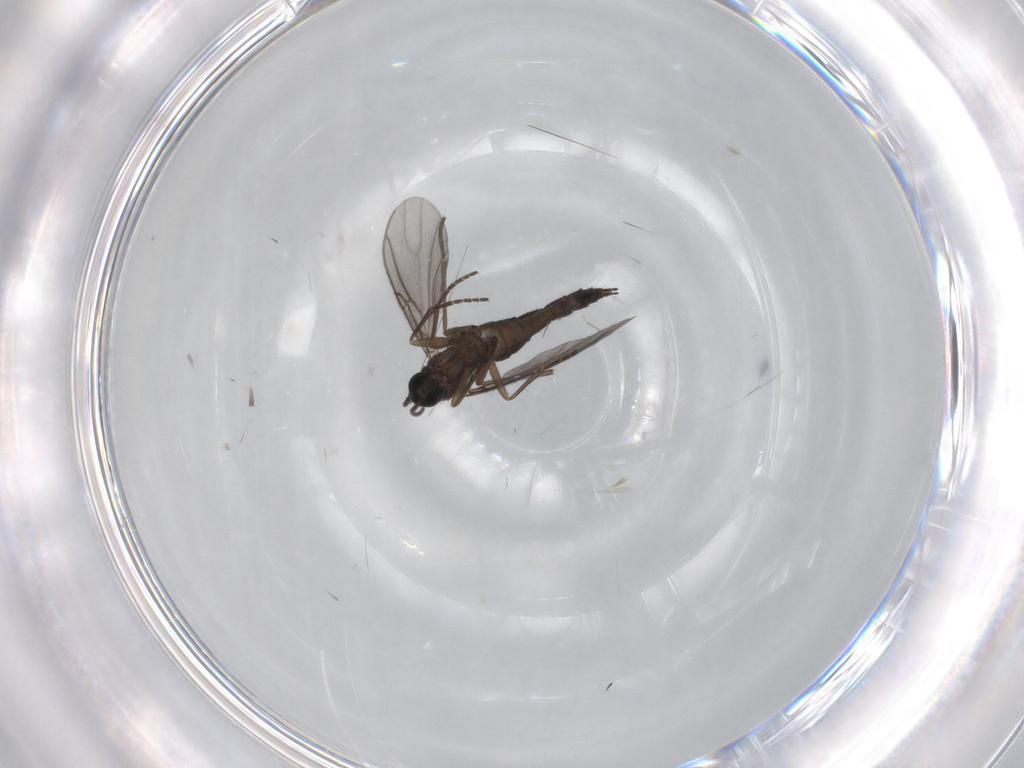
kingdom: Animalia
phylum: Arthropoda
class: Insecta
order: Diptera
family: Sciaridae
